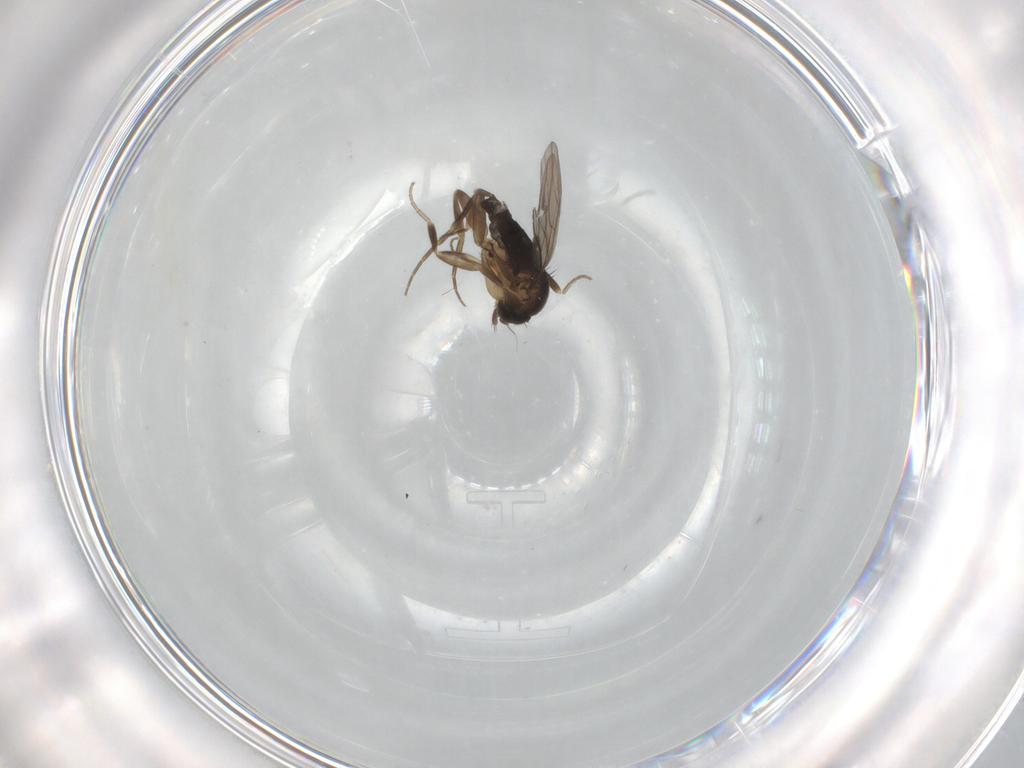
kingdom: Animalia
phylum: Arthropoda
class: Insecta
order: Diptera
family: Phoridae
